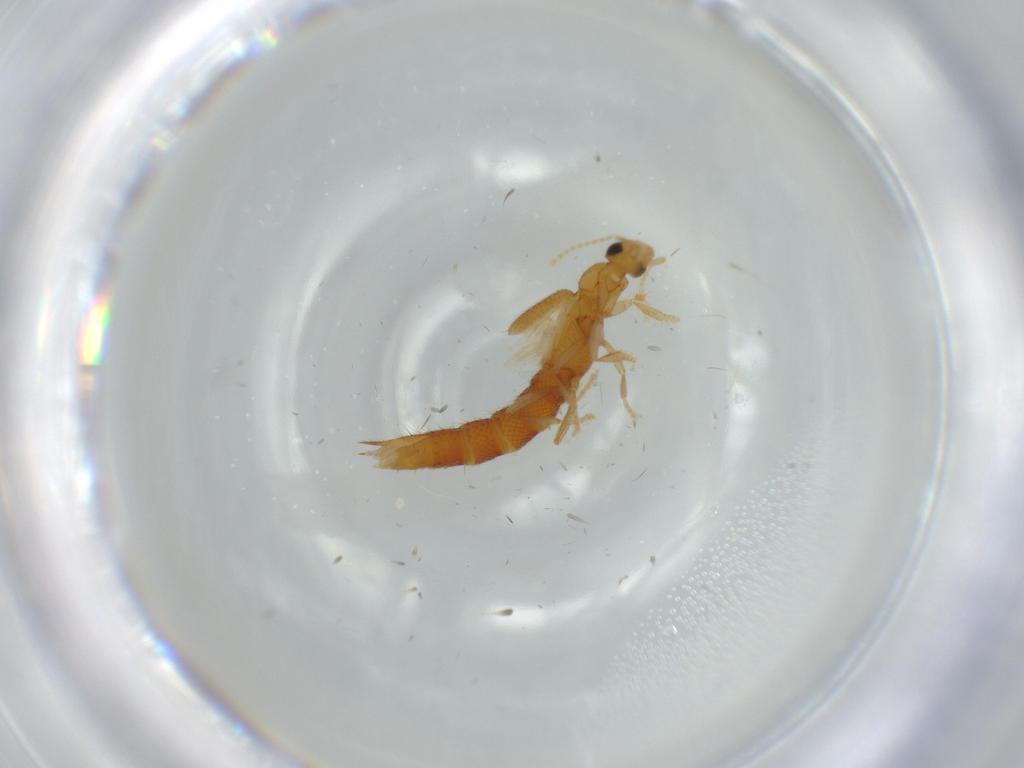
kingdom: Animalia
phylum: Arthropoda
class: Insecta
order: Coleoptera
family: Staphylinidae
